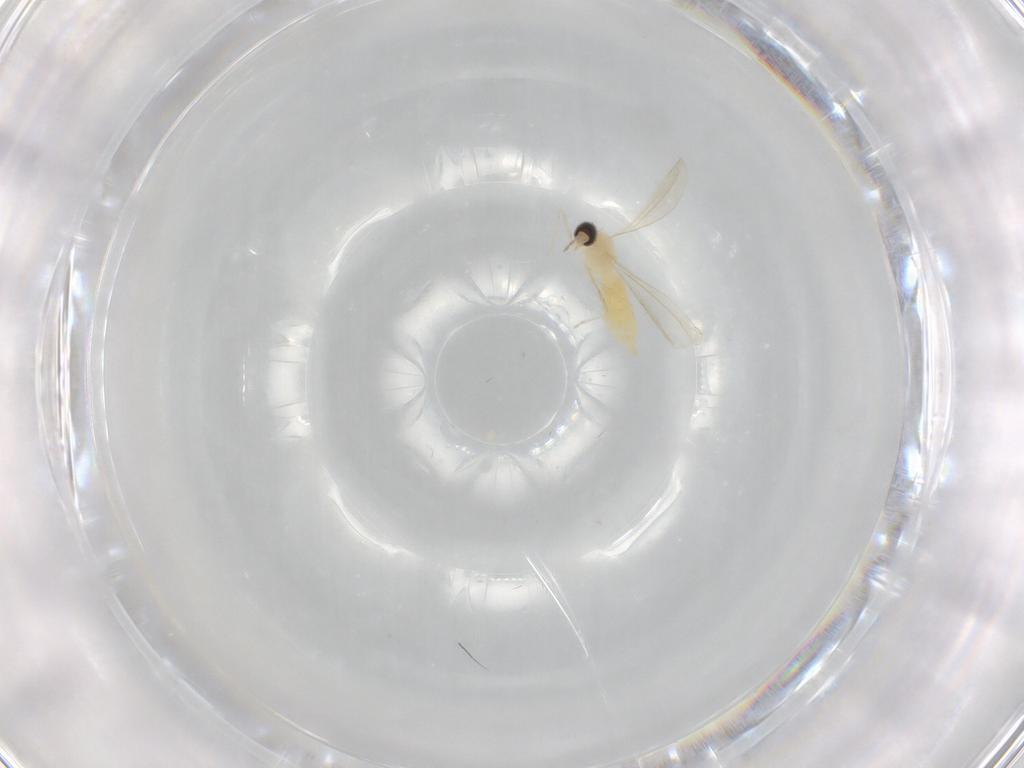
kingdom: Animalia
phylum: Arthropoda
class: Insecta
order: Diptera
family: Cecidomyiidae
